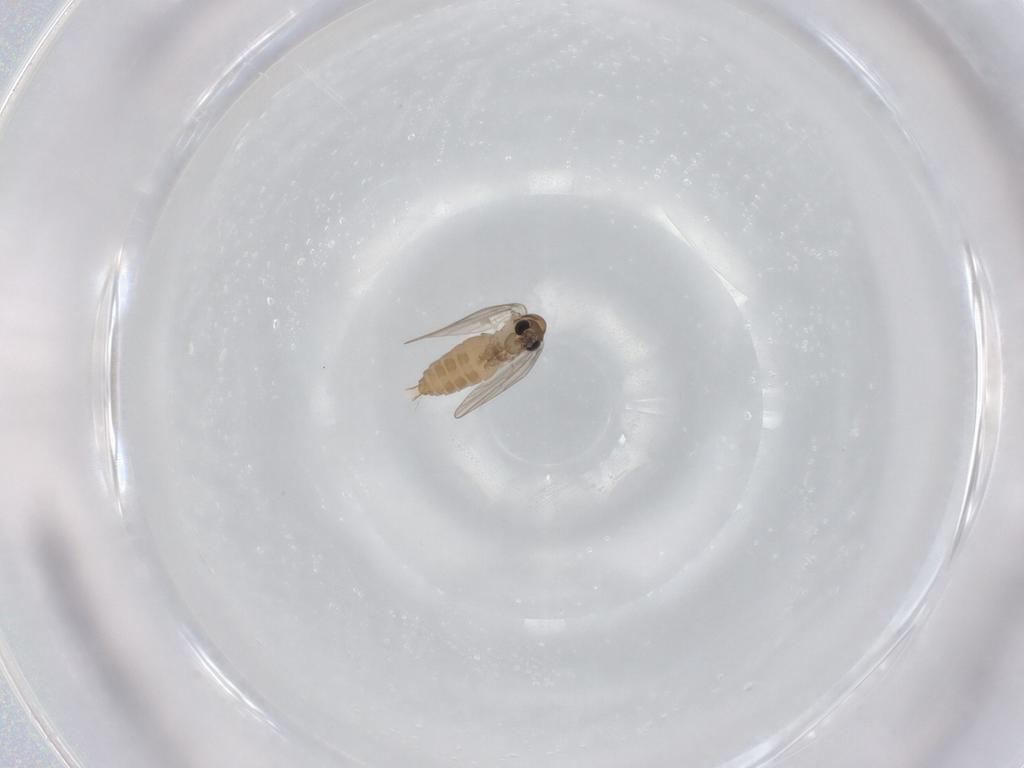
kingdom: Animalia
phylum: Arthropoda
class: Insecta
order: Diptera
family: Psychodidae
